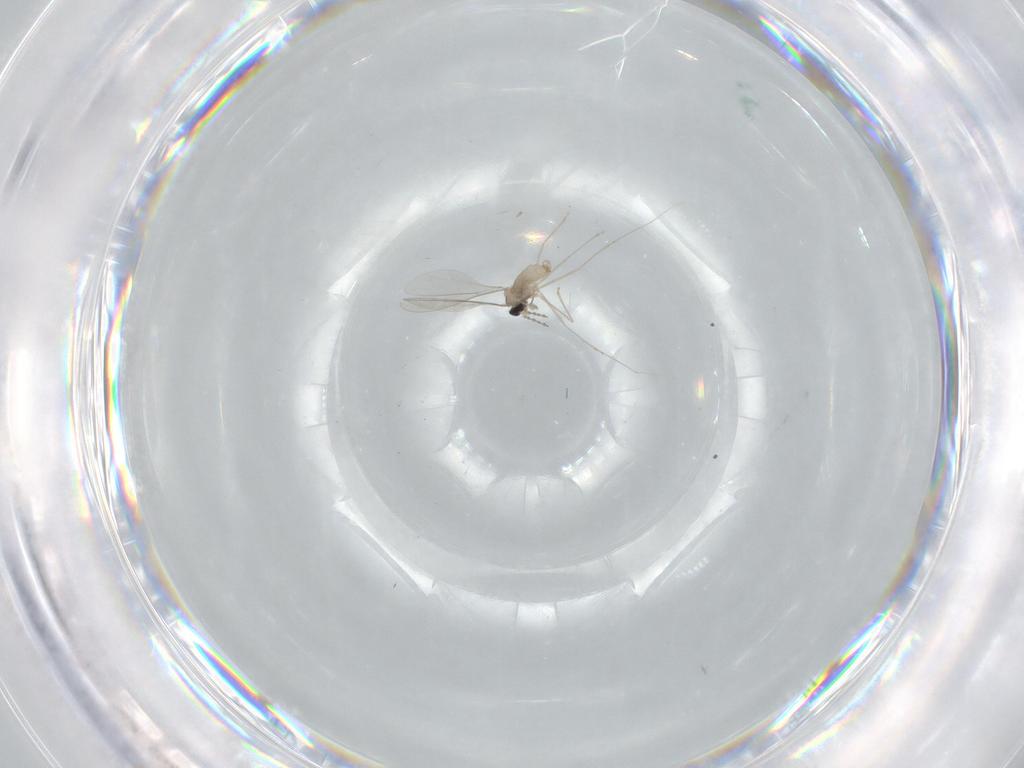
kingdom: Animalia
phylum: Arthropoda
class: Insecta
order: Diptera
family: Cecidomyiidae
